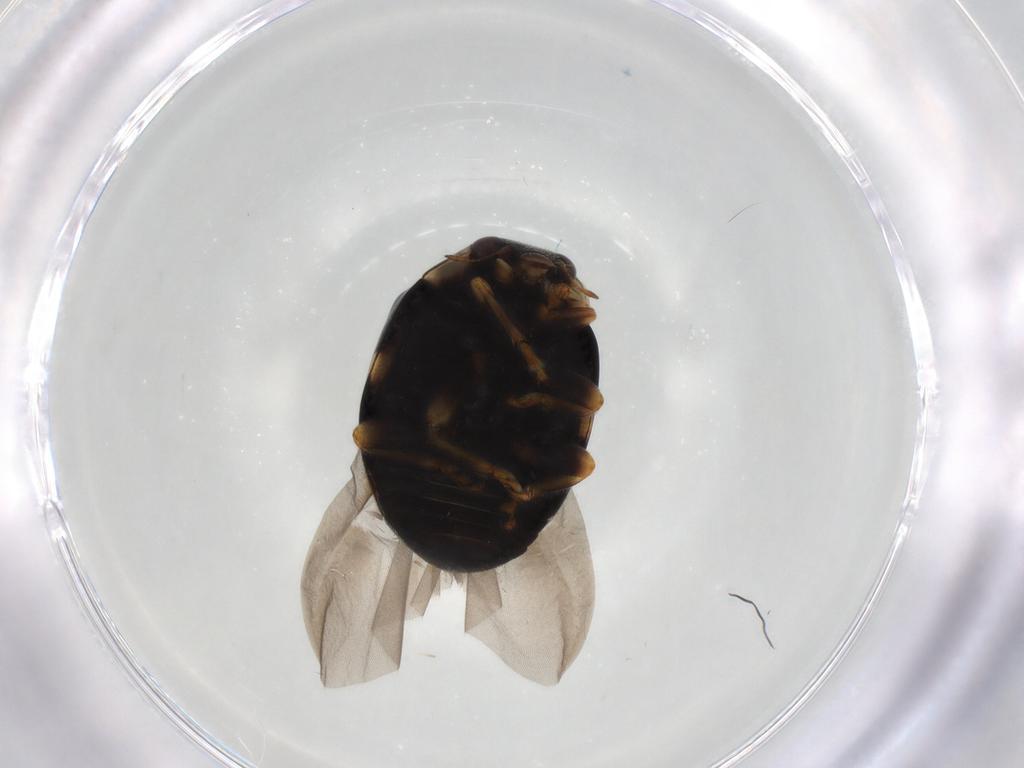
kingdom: Animalia
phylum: Arthropoda
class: Insecta
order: Coleoptera
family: Coccinellidae
